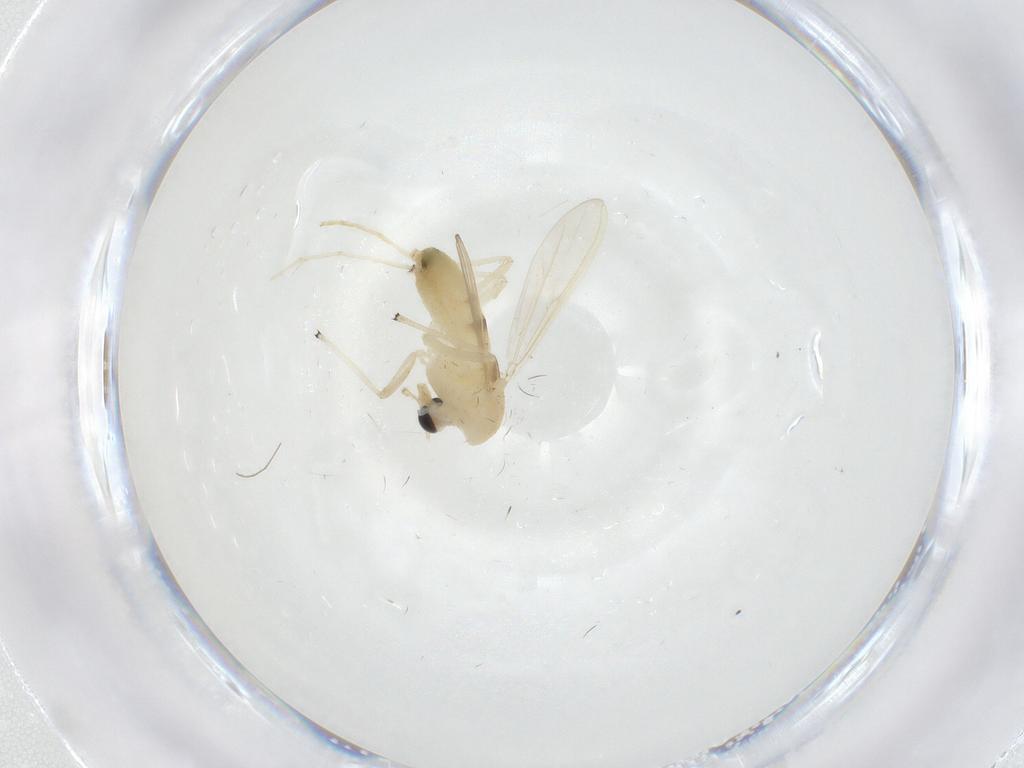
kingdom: Animalia
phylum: Arthropoda
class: Insecta
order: Diptera
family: Chironomidae
